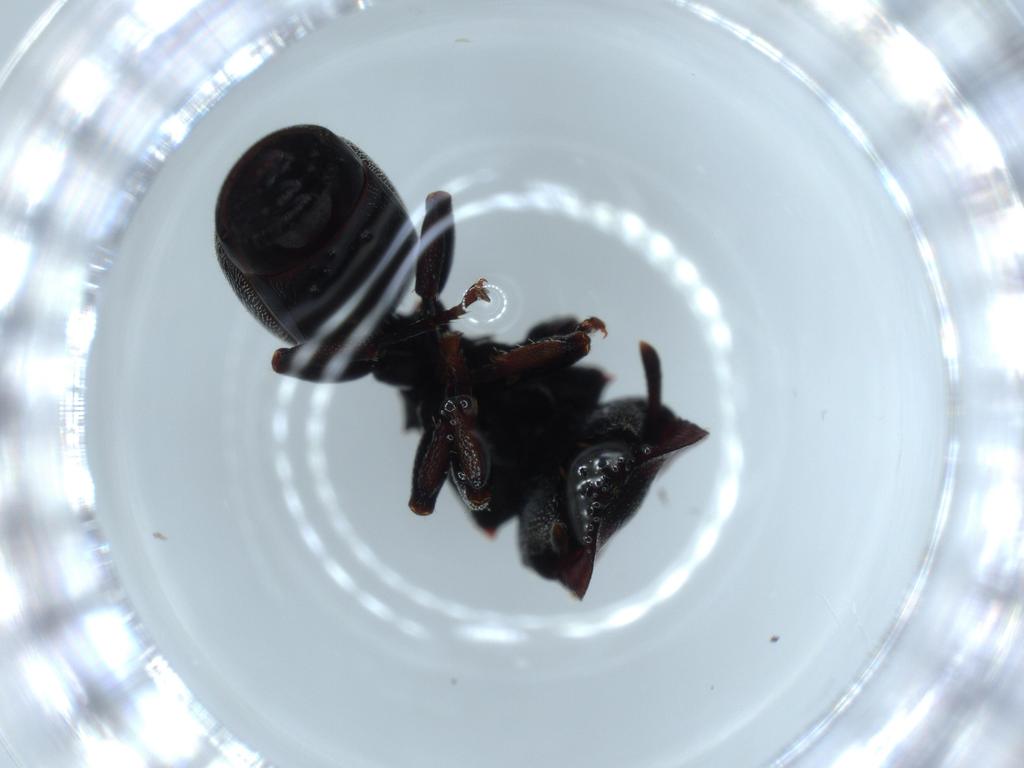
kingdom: Animalia
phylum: Arthropoda
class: Insecta
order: Hymenoptera
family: Formicidae
